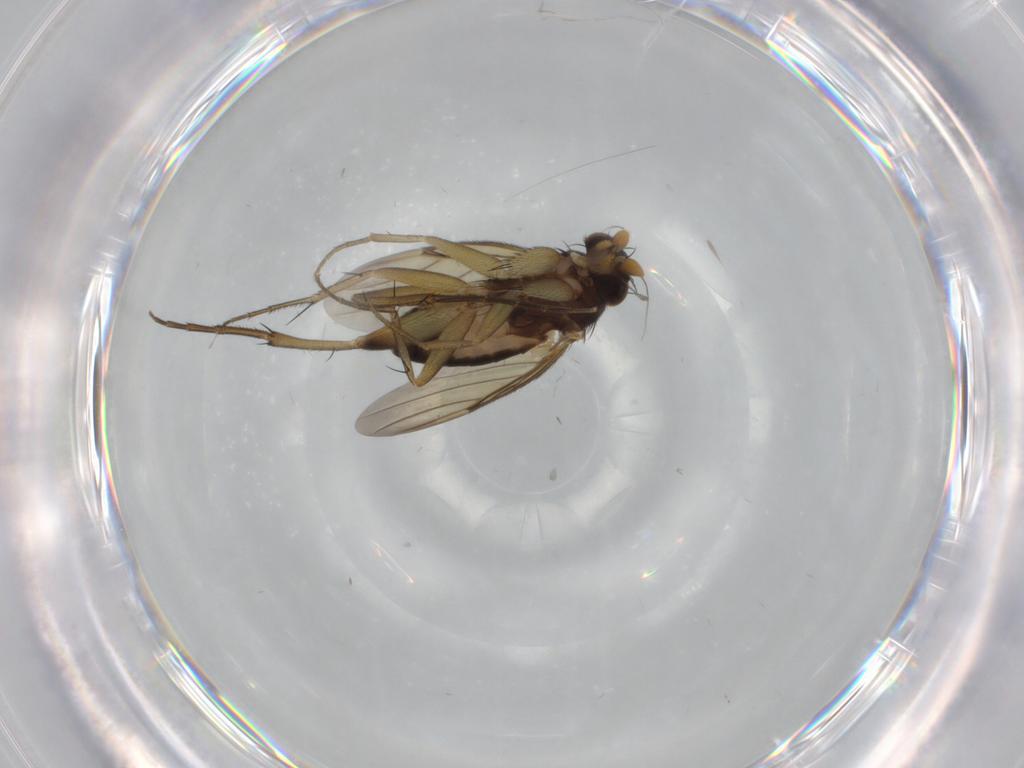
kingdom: Animalia
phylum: Arthropoda
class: Insecta
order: Diptera
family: Phoridae
